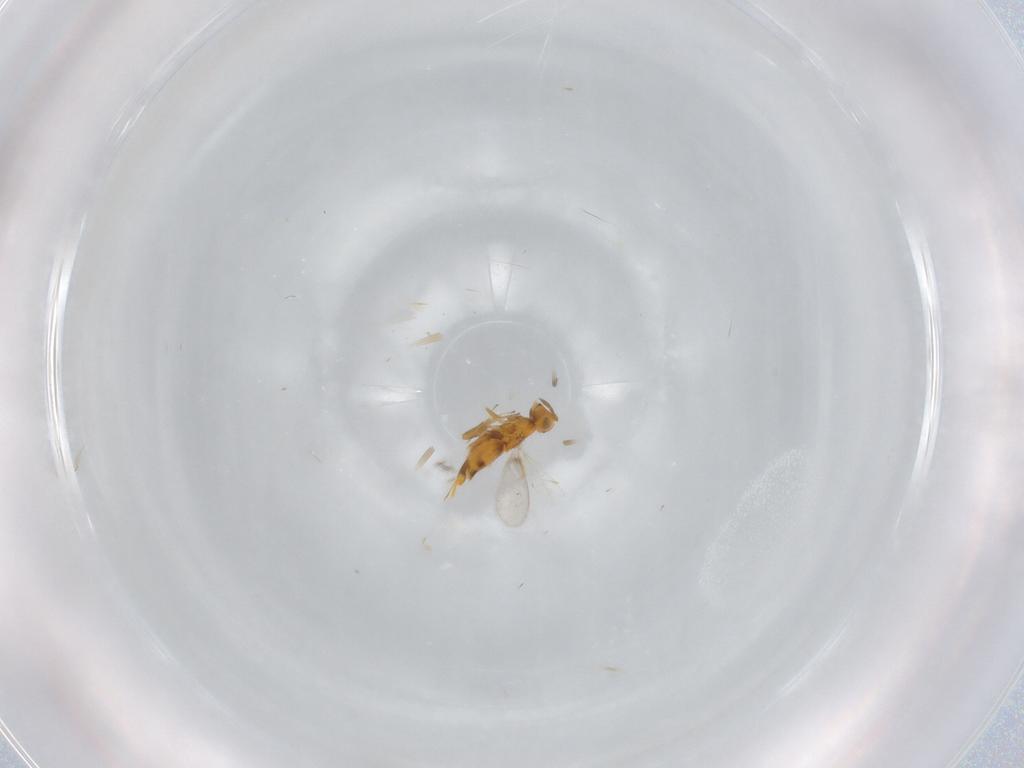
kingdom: Animalia
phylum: Arthropoda
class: Insecta
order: Hymenoptera
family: Aphelinidae
